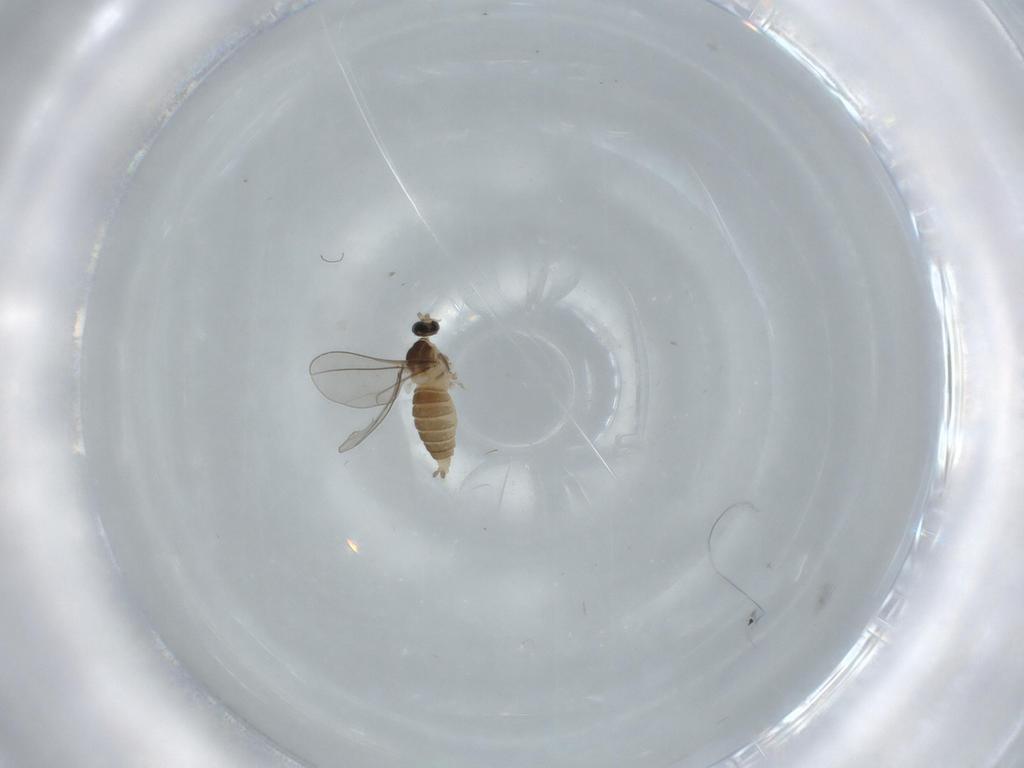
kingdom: Animalia
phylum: Arthropoda
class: Insecta
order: Diptera
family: Cecidomyiidae
